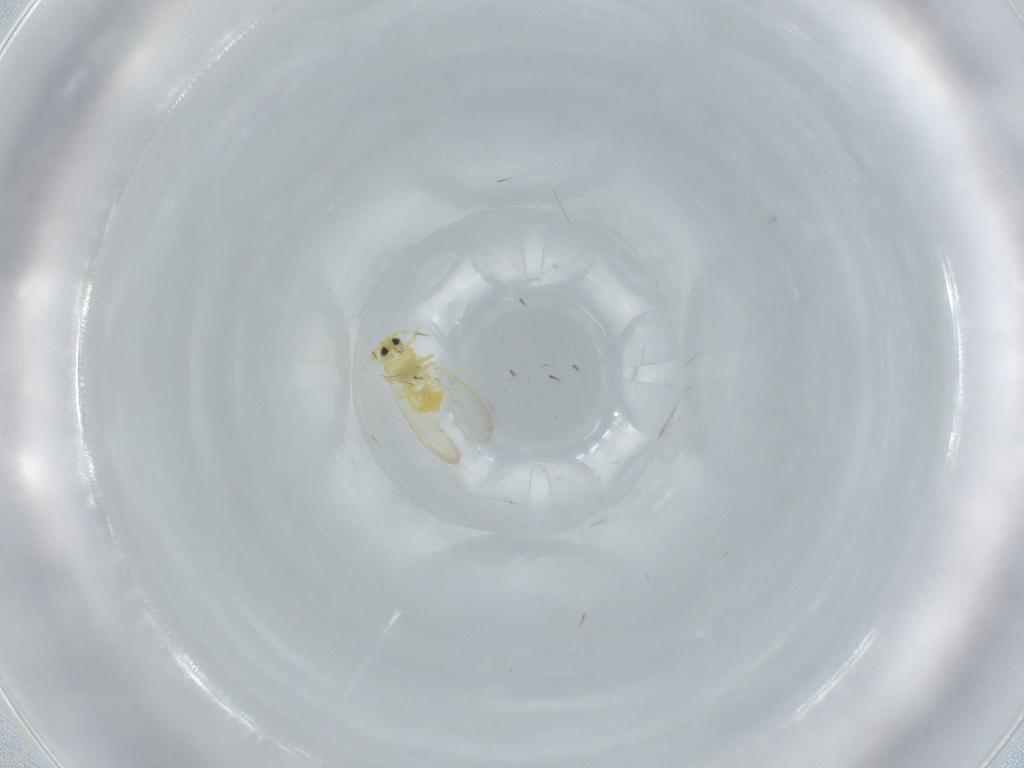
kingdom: Animalia
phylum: Arthropoda
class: Insecta
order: Hemiptera
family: Aleyrodidae
